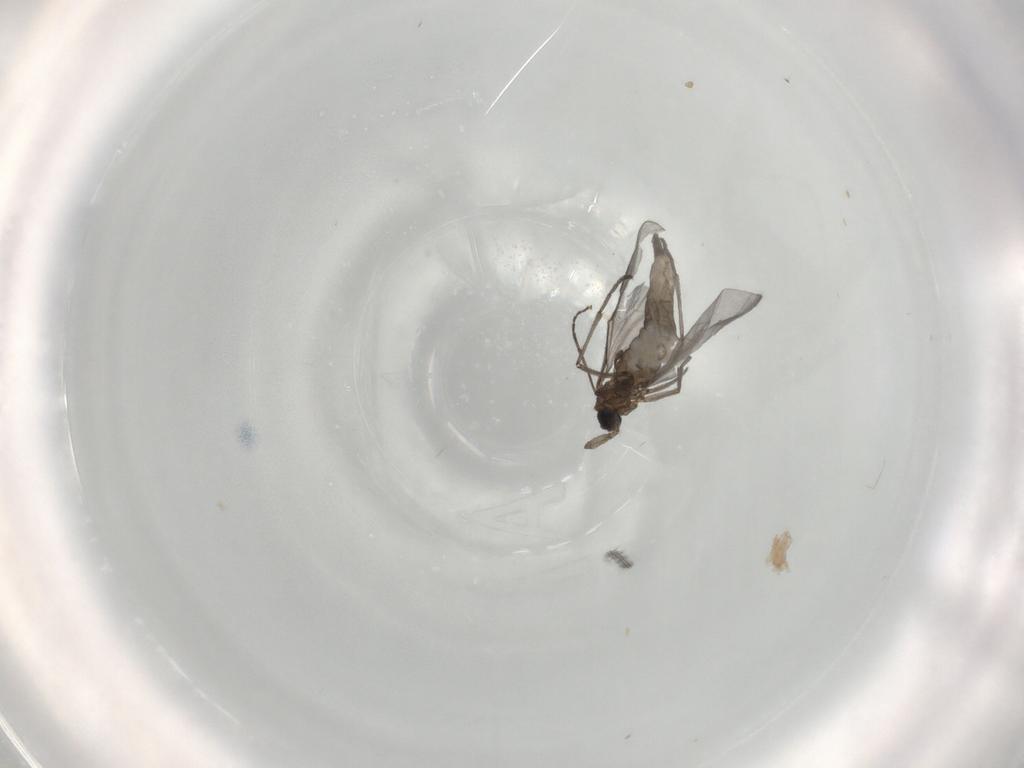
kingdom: Animalia
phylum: Arthropoda
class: Insecta
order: Diptera
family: Sciaridae
